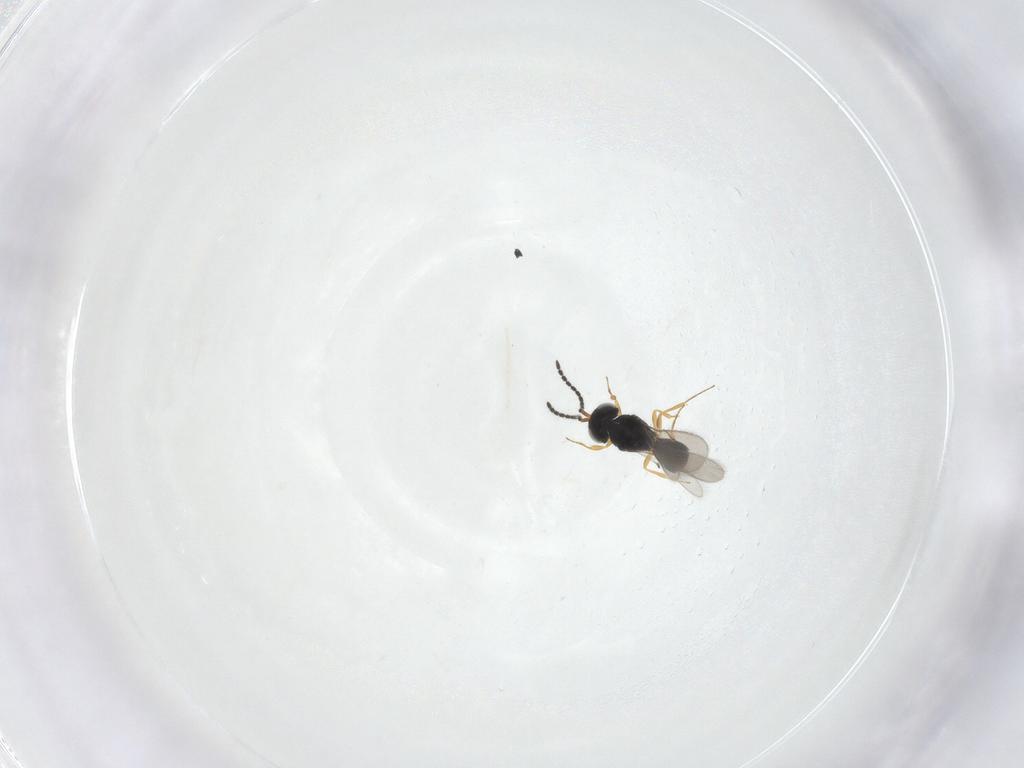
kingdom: Animalia
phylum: Arthropoda
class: Insecta
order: Hymenoptera
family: Scelionidae
